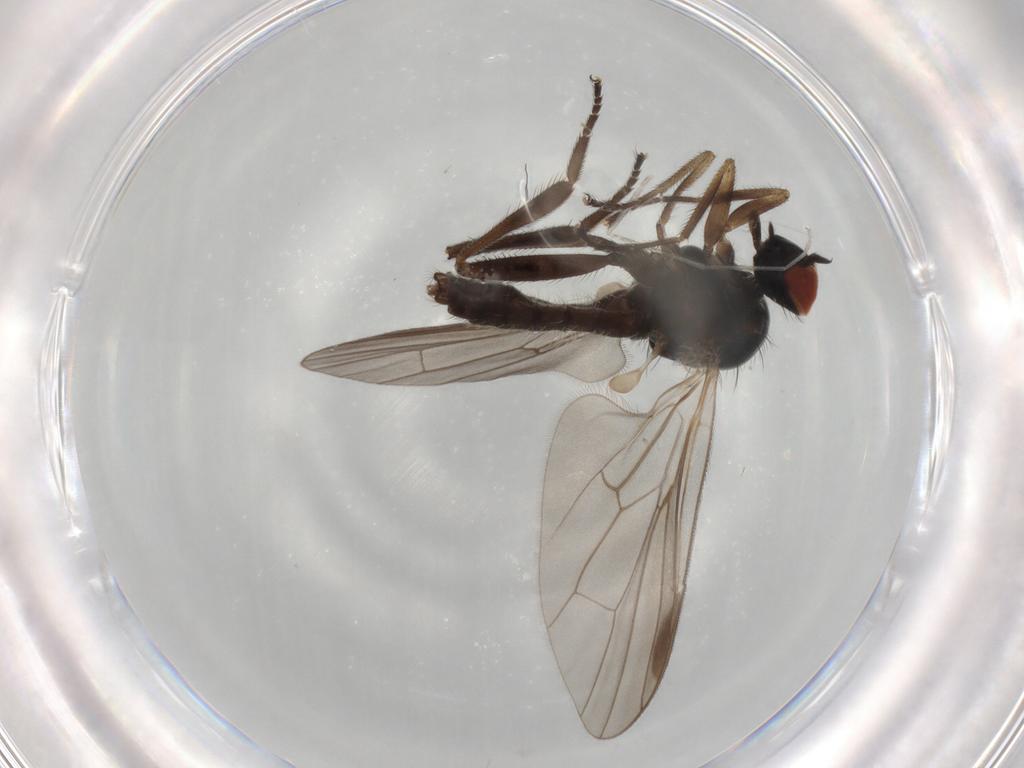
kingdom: Animalia
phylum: Arthropoda
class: Insecta
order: Diptera
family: Hybotidae
